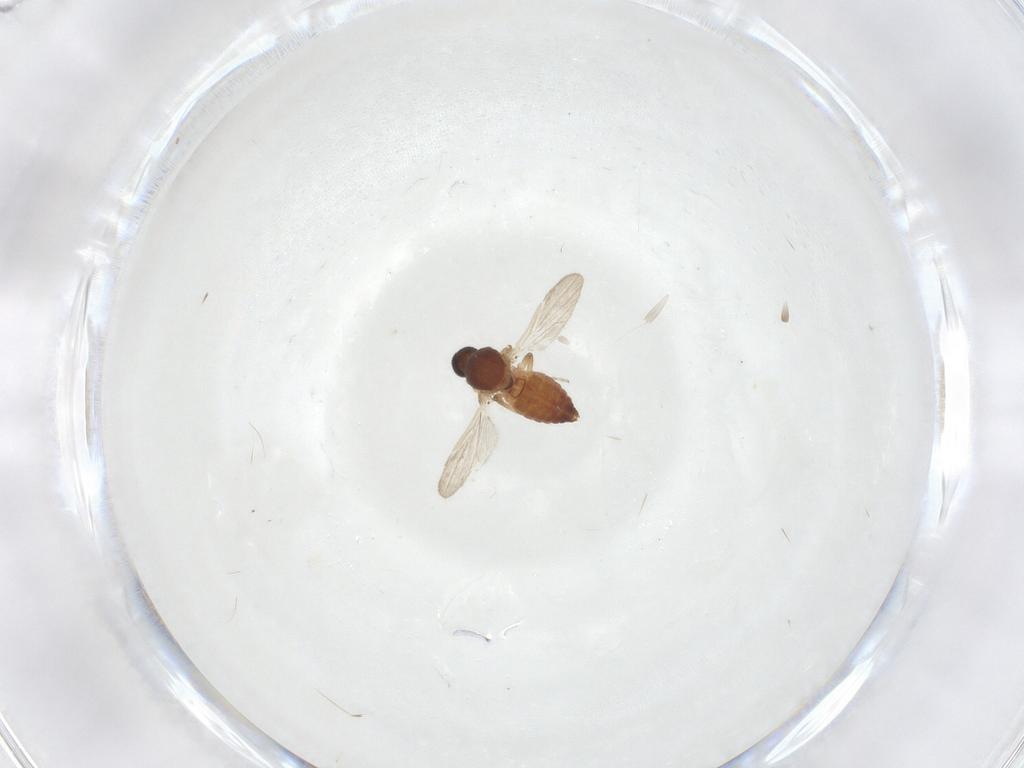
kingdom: Animalia
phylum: Arthropoda
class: Insecta
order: Diptera
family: Ceratopogonidae
